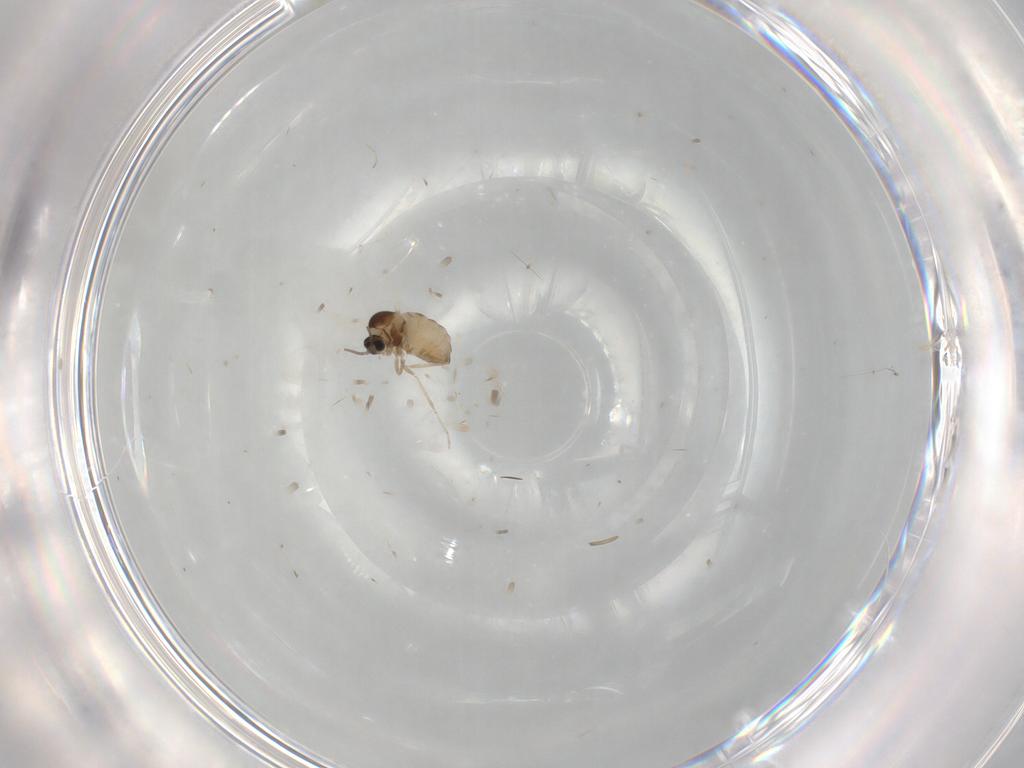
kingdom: Animalia
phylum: Arthropoda
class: Insecta
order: Diptera
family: Cecidomyiidae
